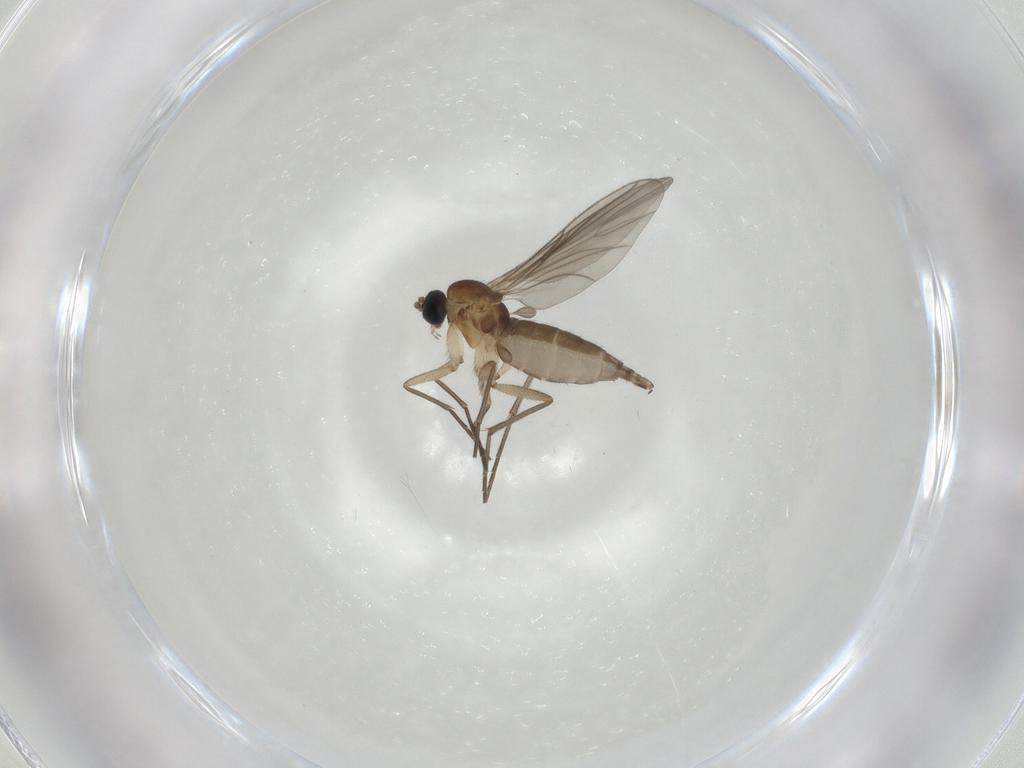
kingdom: Animalia
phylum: Arthropoda
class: Insecta
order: Diptera
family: Sciaridae
